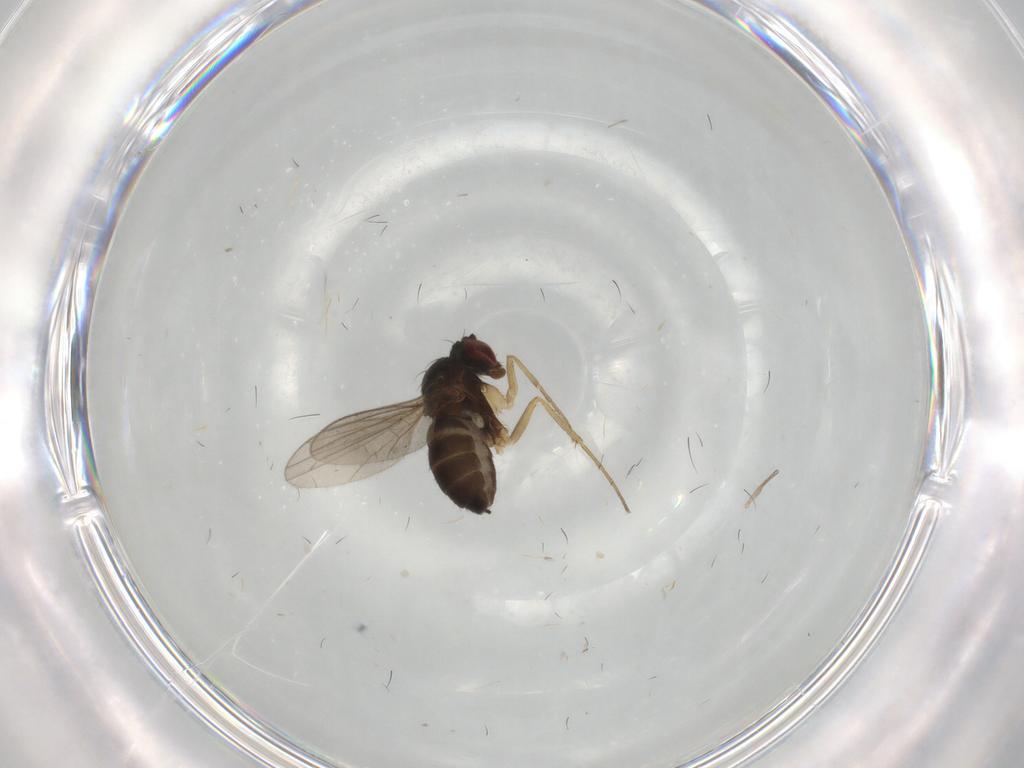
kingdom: Animalia
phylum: Arthropoda
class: Insecta
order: Diptera
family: Dolichopodidae
